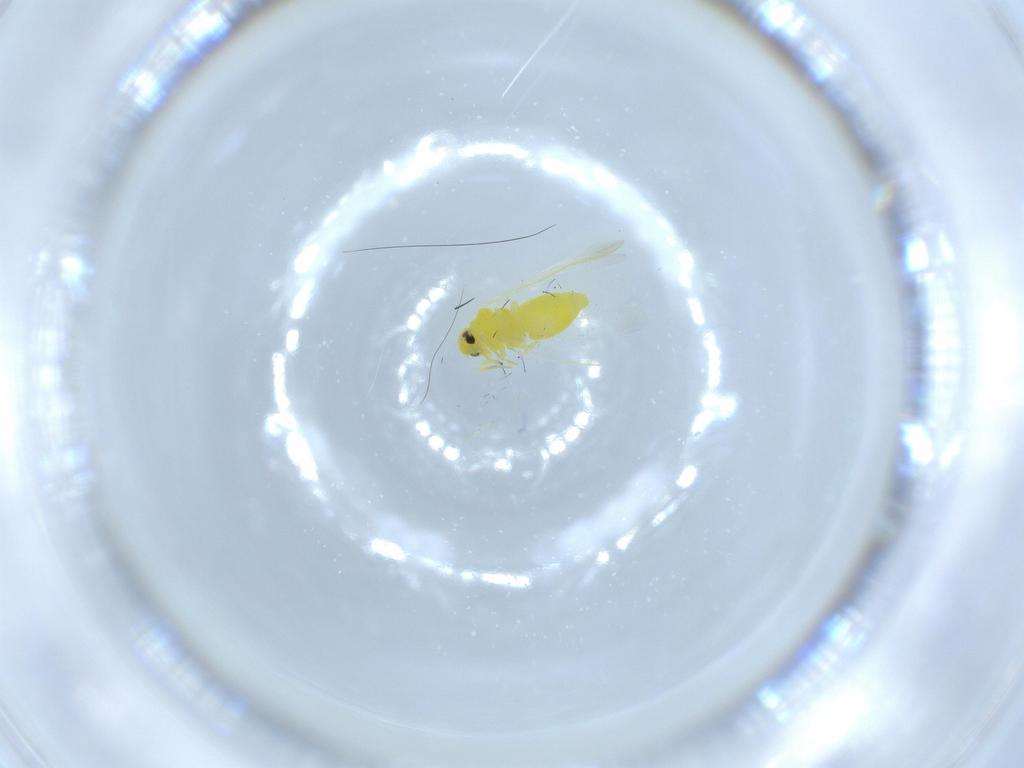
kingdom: Animalia
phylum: Arthropoda
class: Insecta
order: Hemiptera
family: Aleyrodidae
